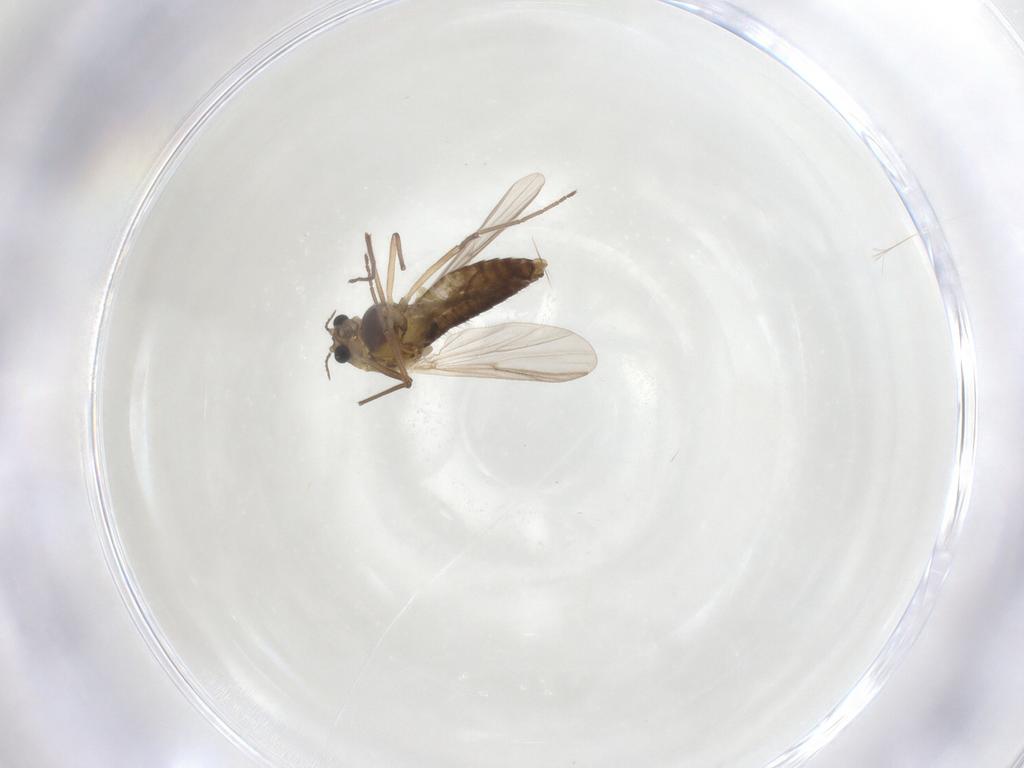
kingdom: Animalia
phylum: Arthropoda
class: Insecta
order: Diptera
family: Chironomidae
